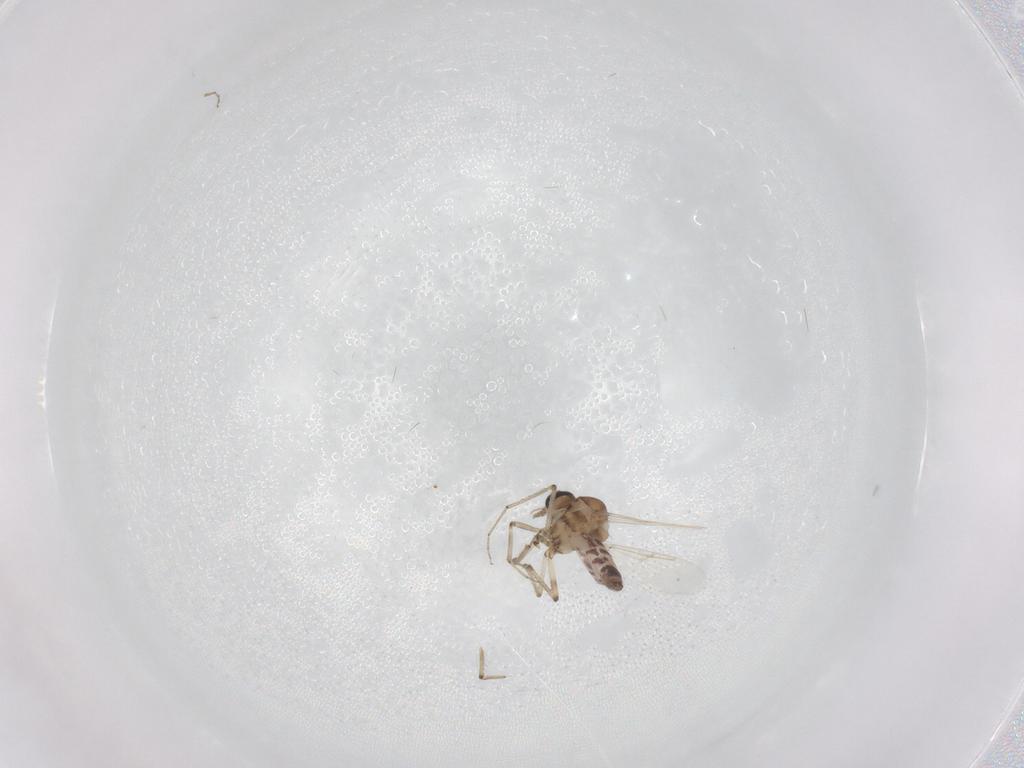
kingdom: Animalia
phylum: Arthropoda
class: Insecta
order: Diptera
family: Ceratopogonidae
